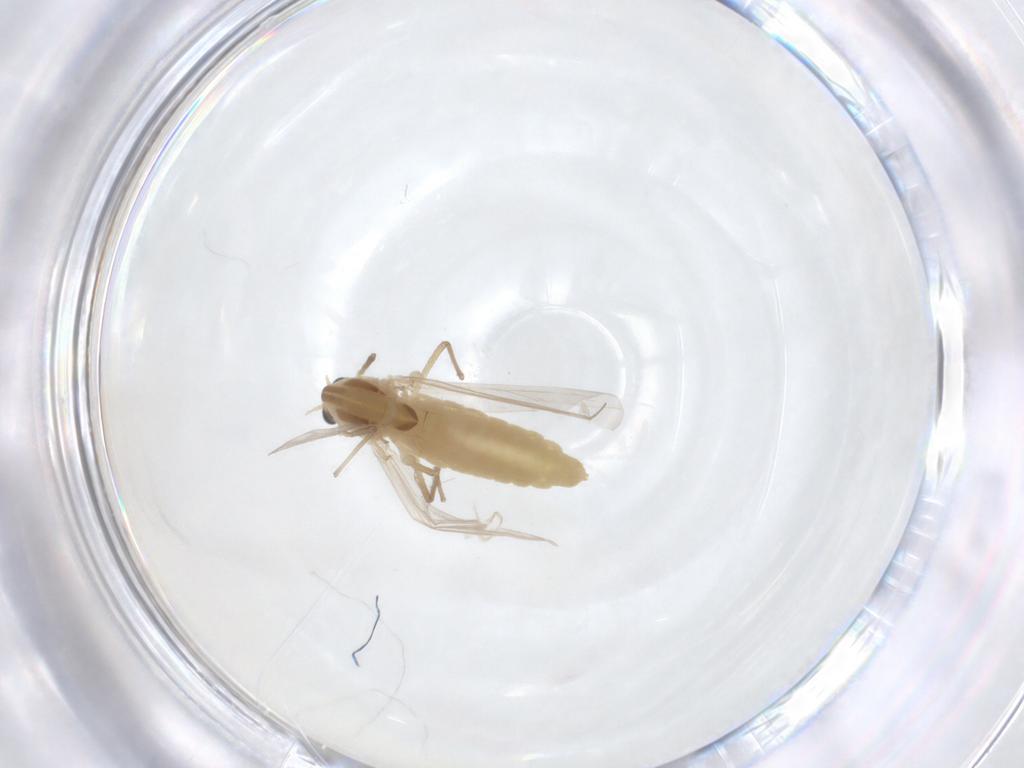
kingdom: Animalia
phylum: Arthropoda
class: Insecta
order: Diptera
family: Chironomidae
